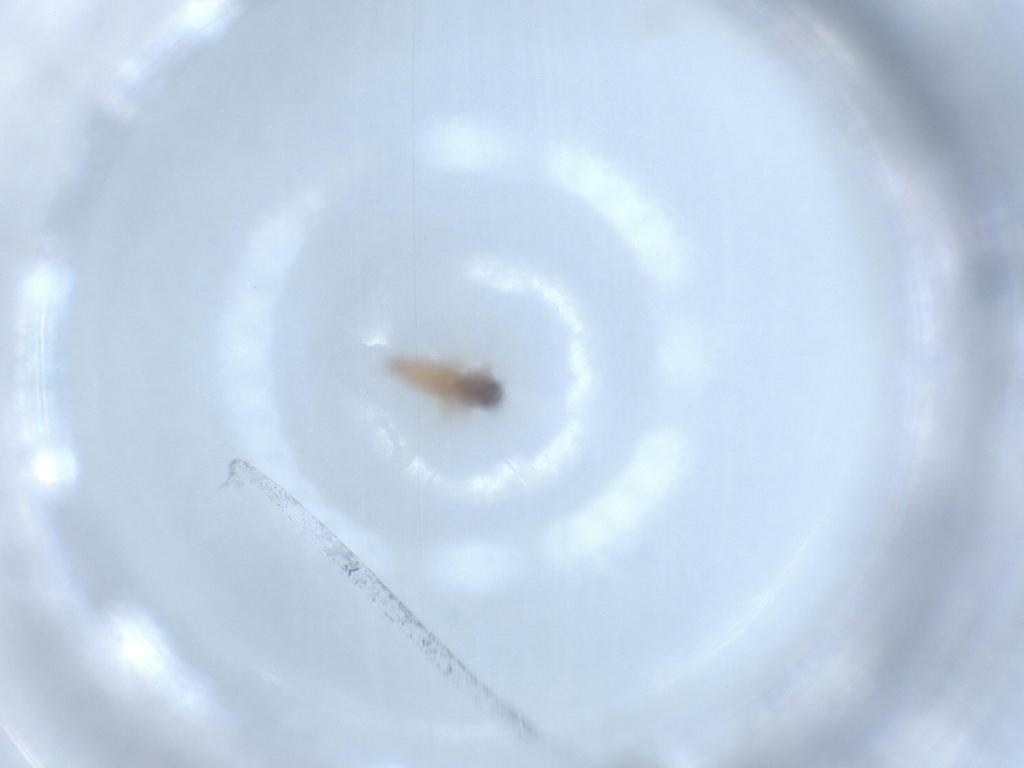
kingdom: Animalia
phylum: Arthropoda
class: Insecta
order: Diptera
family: Ceratopogonidae
